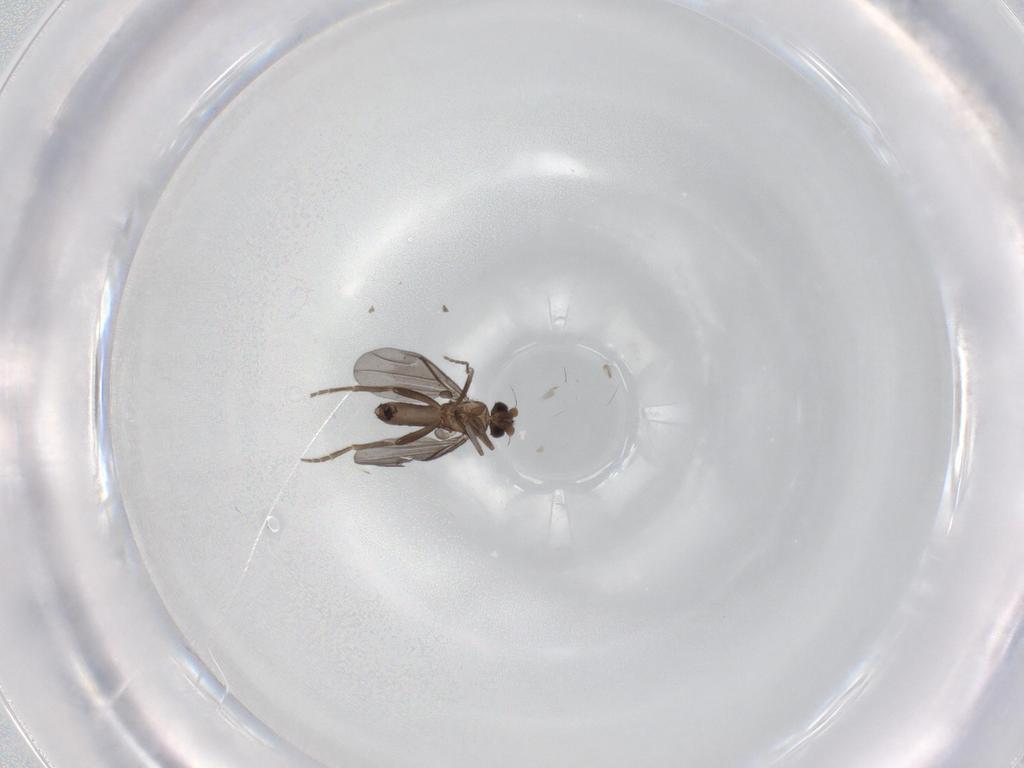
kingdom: Animalia
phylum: Arthropoda
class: Insecta
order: Diptera
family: Phoridae
